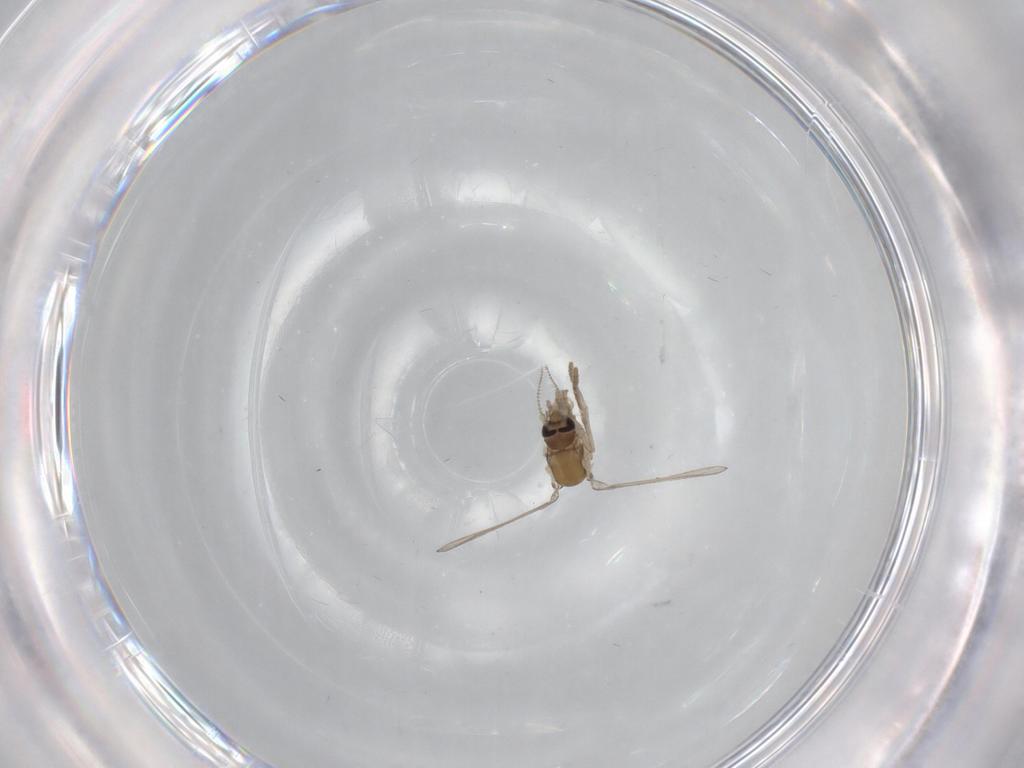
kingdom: Animalia
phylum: Arthropoda
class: Insecta
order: Diptera
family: Psychodidae
